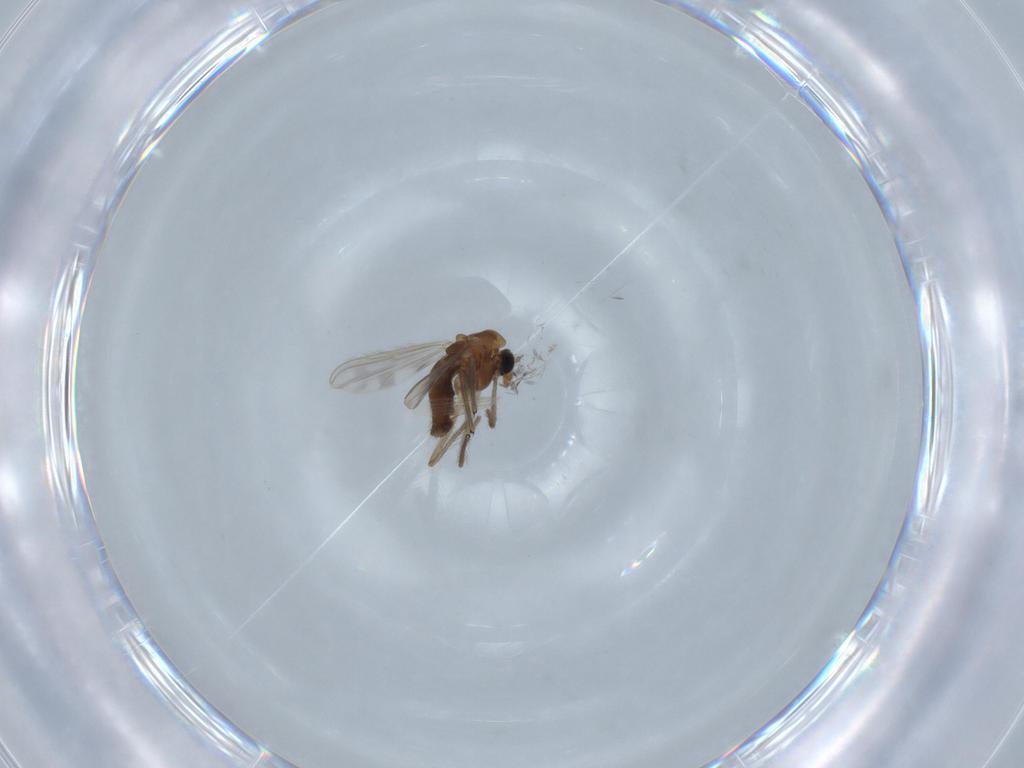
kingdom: Animalia
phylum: Arthropoda
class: Insecta
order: Diptera
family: Chironomidae
